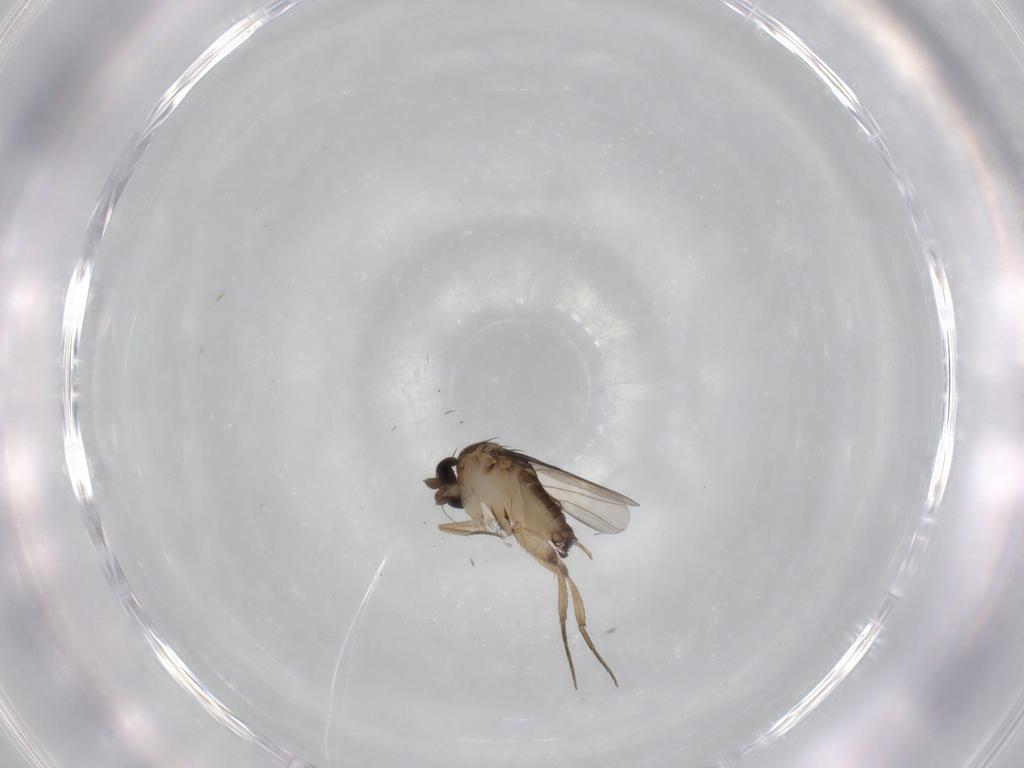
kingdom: Animalia
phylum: Arthropoda
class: Insecta
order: Diptera
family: Phoridae
